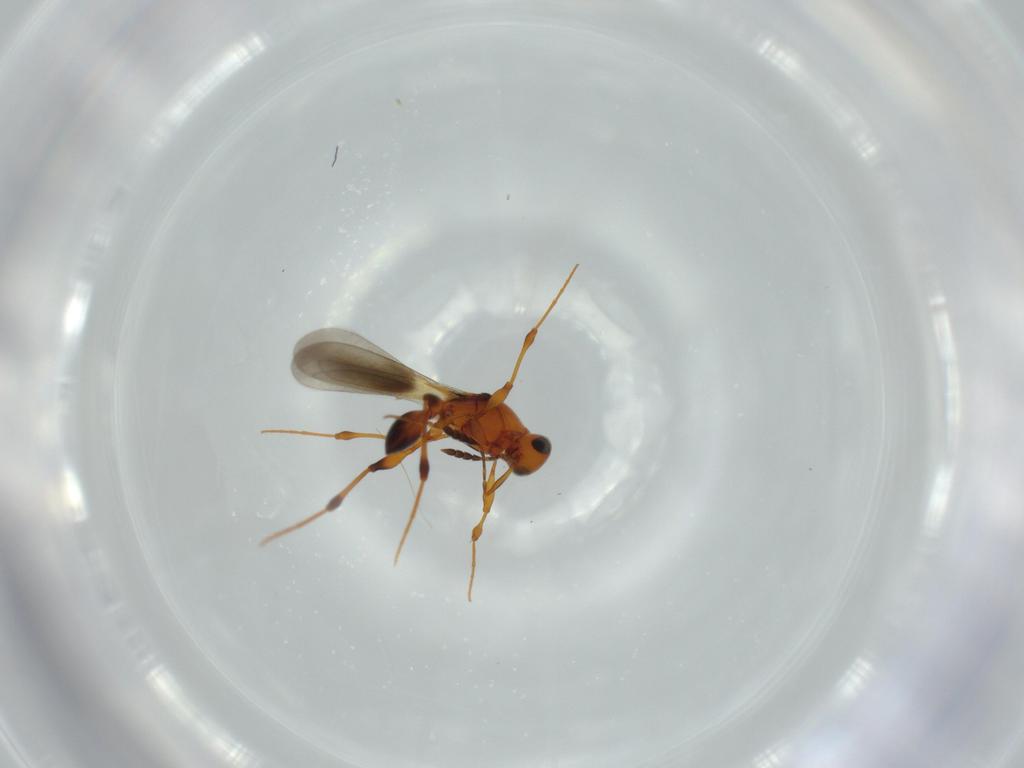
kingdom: Animalia
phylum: Arthropoda
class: Insecta
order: Hymenoptera
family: Platygastridae
